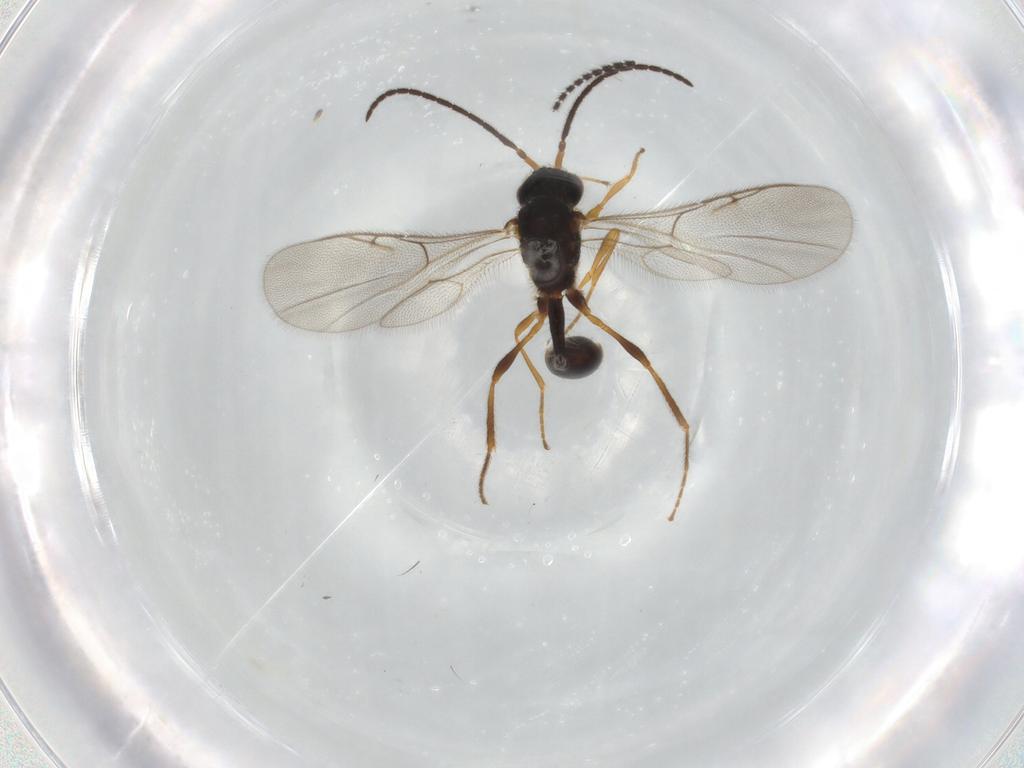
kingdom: Animalia
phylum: Arthropoda
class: Insecta
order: Hymenoptera
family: Diapriidae
